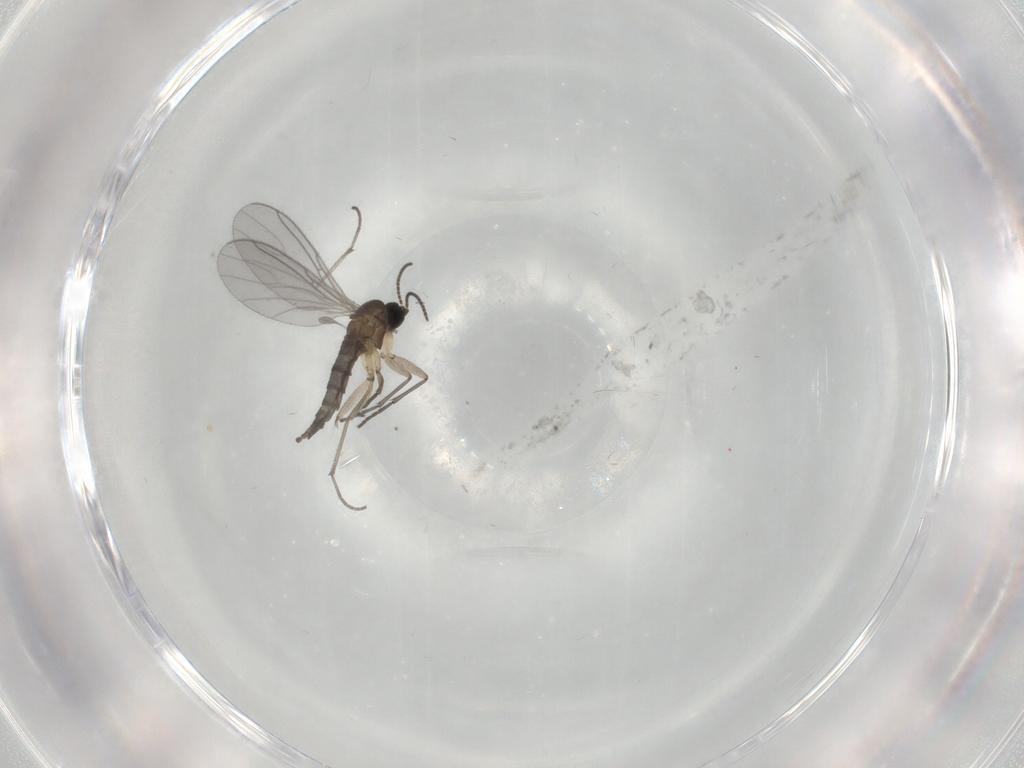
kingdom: Animalia
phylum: Arthropoda
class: Insecta
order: Diptera
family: Sciaridae
